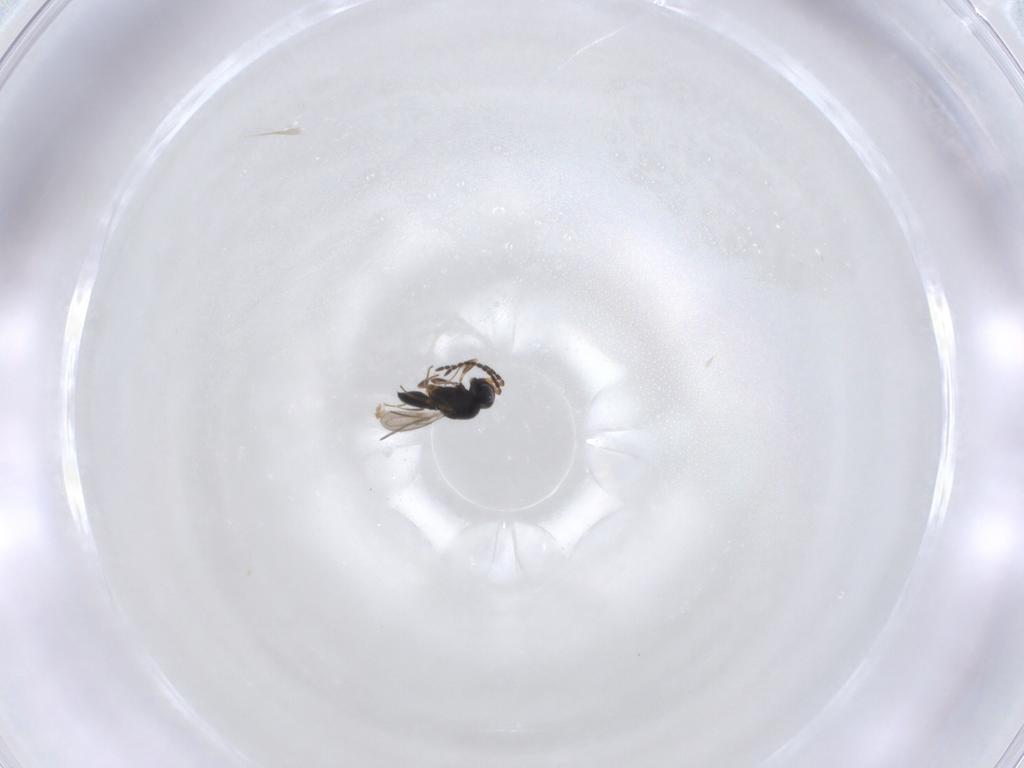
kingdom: Animalia
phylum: Arthropoda
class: Insecta
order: Hymenoptera
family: Scelionidae
